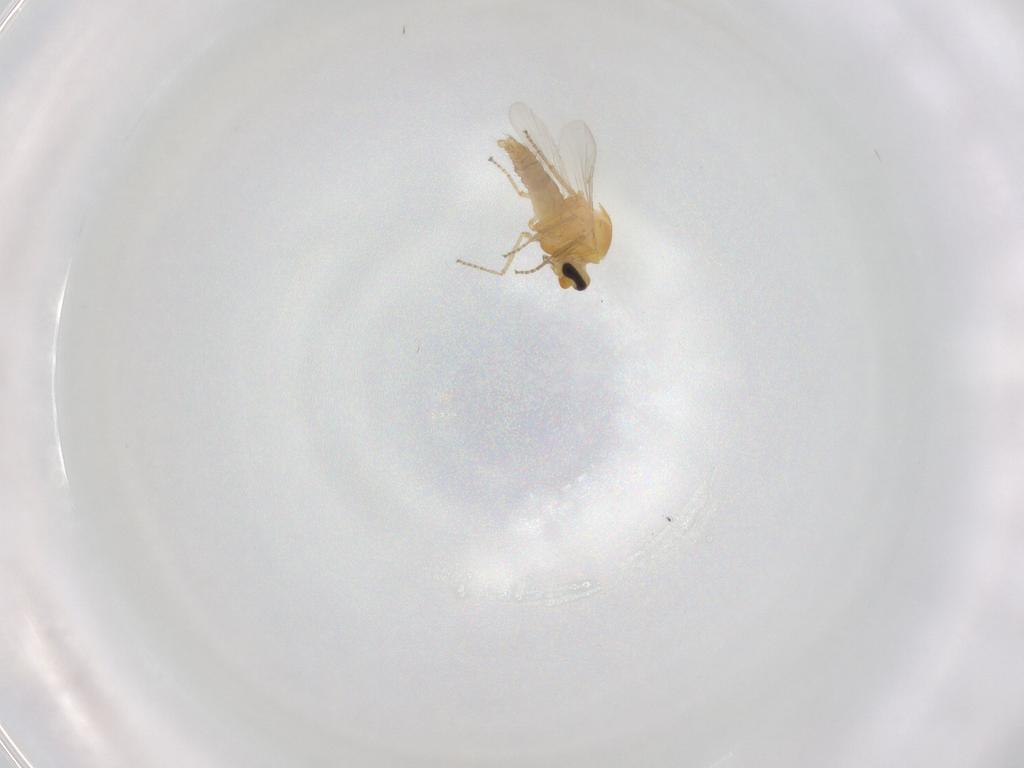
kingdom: Animalia
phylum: Arthropoda
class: Insecta
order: Diptera
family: Ceratopogonidae
